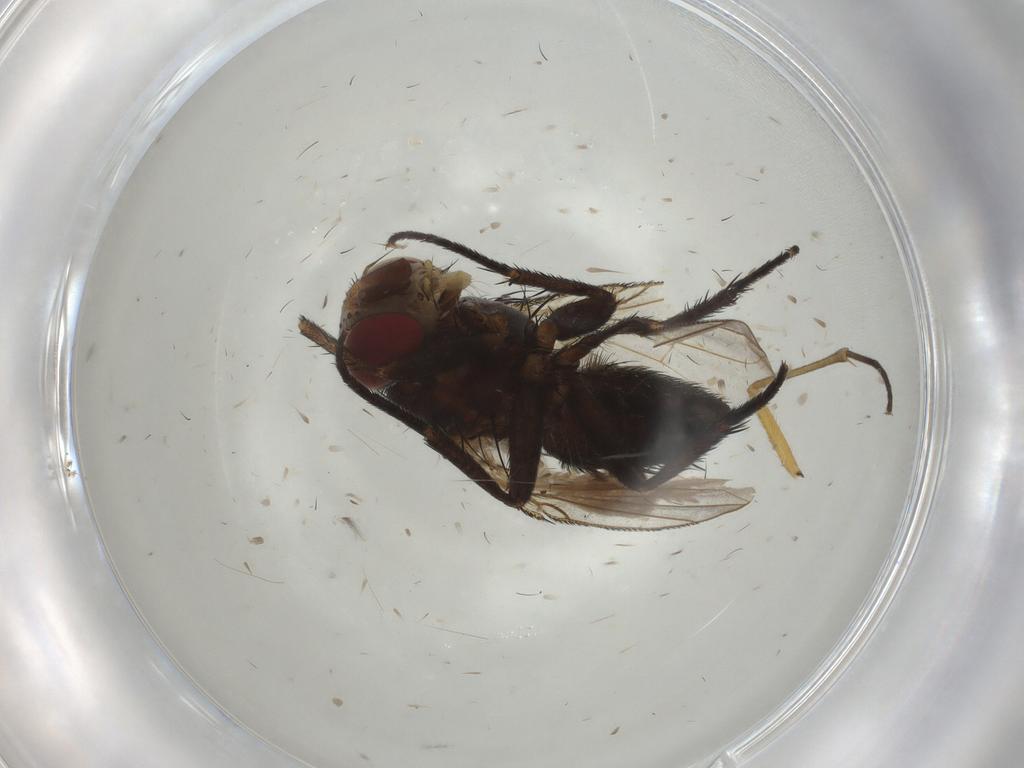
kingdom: Animalia
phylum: Arthropoda
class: Insecta
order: Diptera
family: Tachinidae
